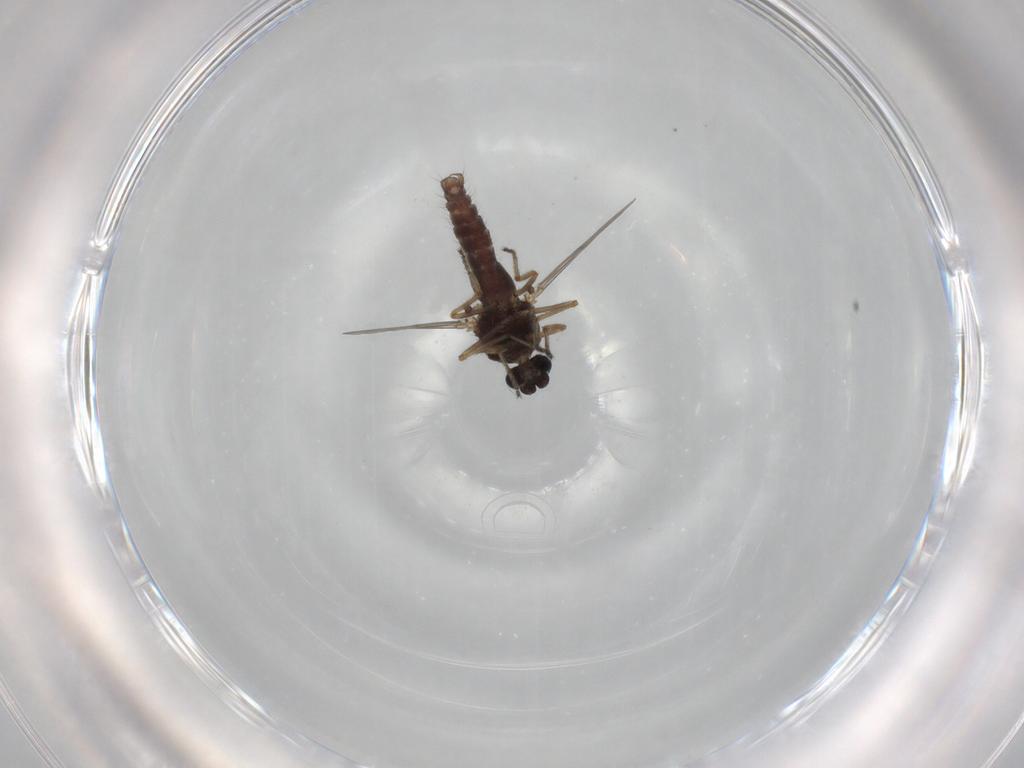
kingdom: Animalia
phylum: Arthropoda
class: Insecta
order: Diptera
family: Ceratopogonidae
